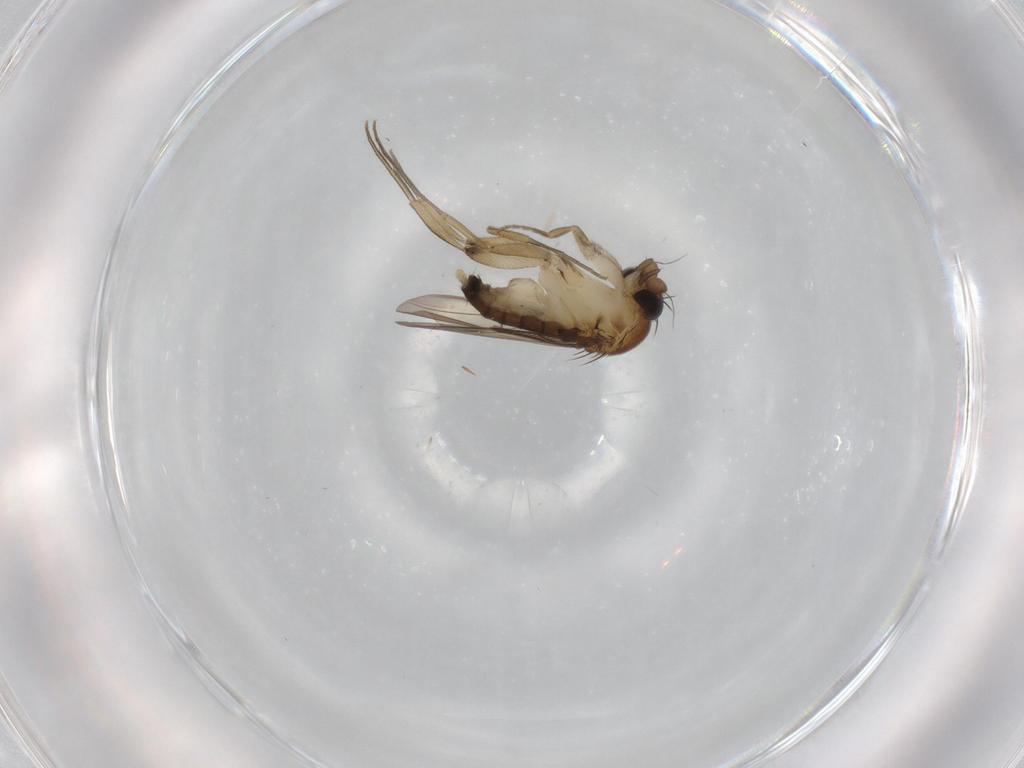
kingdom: Animalia
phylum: Arthropoda
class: Insecta
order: Diptera
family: Phoridae
